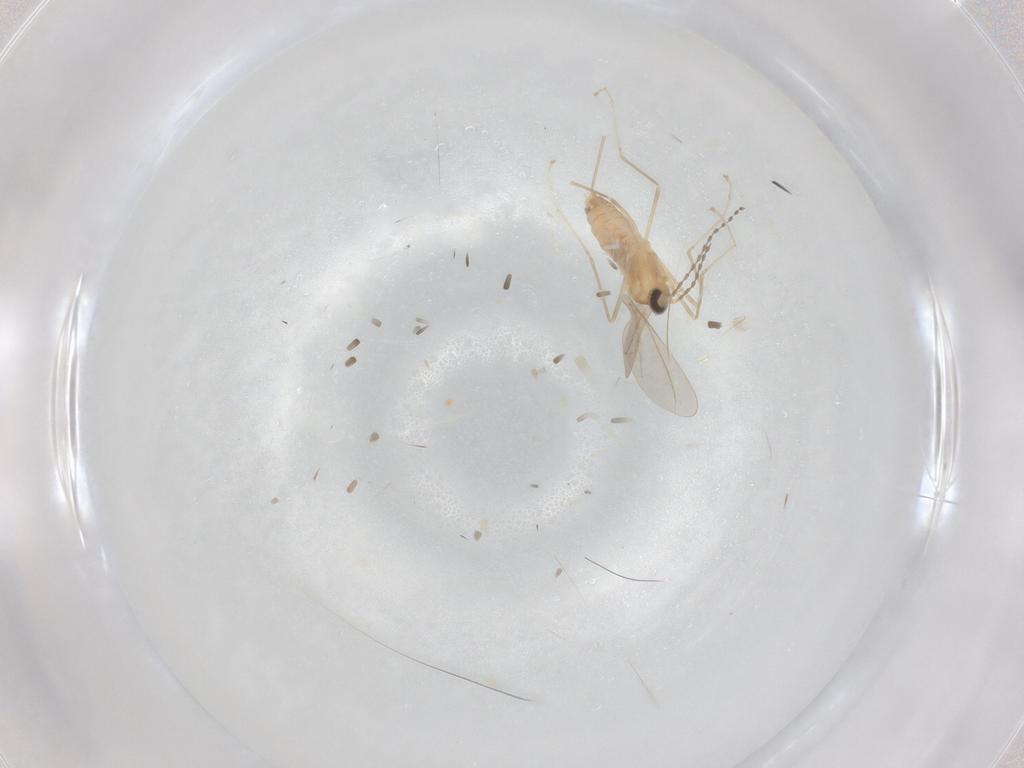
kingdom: Animalia
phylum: Arthropoda
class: Insecta
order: Diptera
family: Cecidomyiidae
